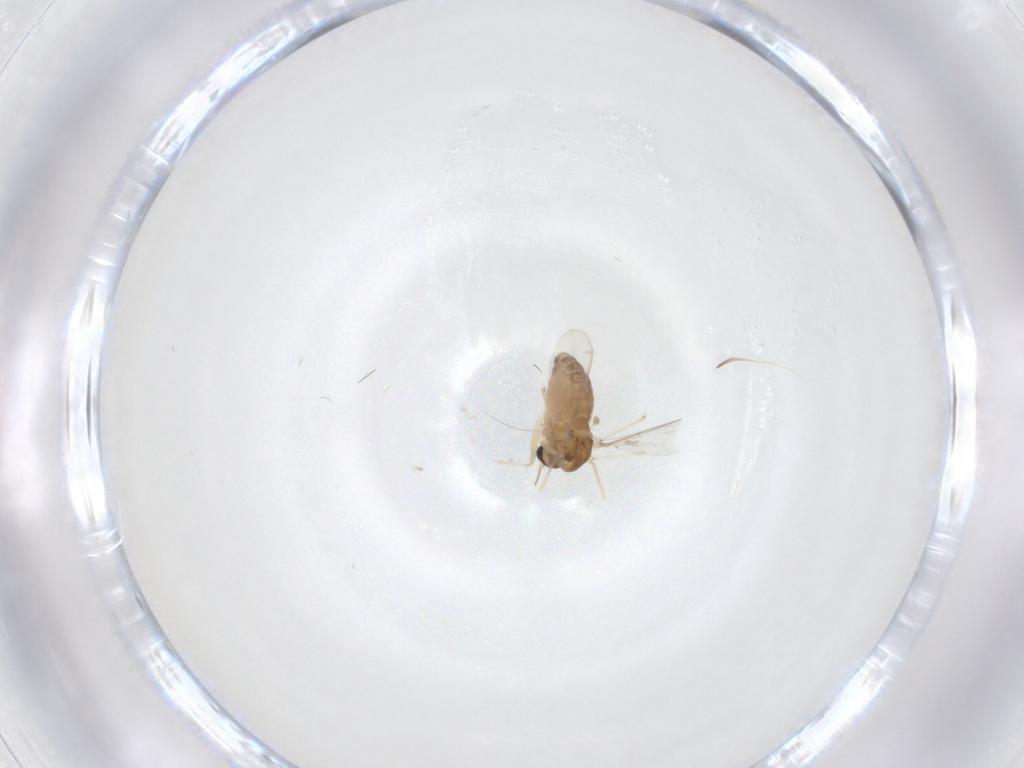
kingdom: Animalia
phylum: Arthropoda
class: Insecta
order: Diptera
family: Chironomidae
